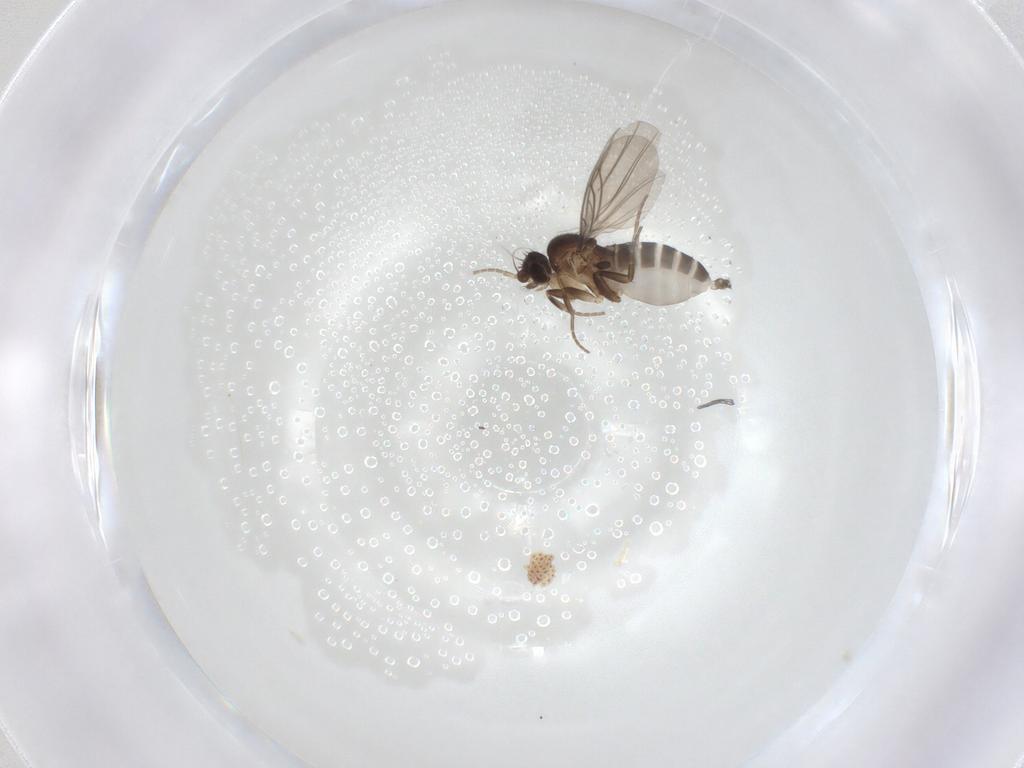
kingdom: Animalia
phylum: Arthropoda
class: Insecta
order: Diptera
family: Phoridae
